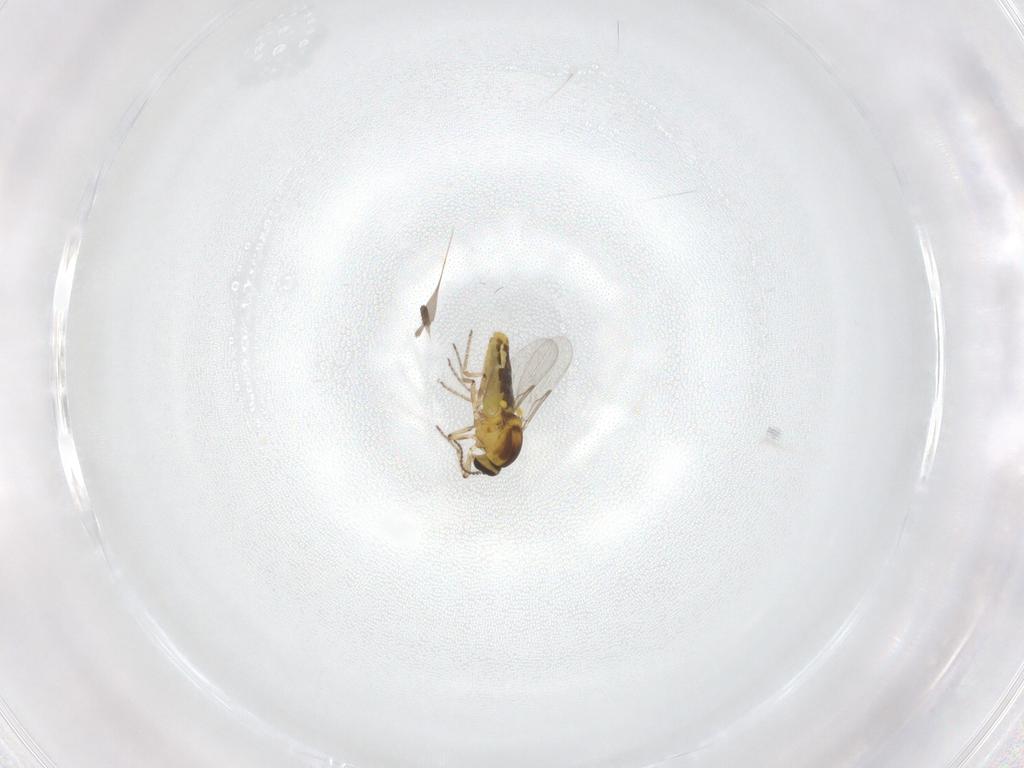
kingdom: Animalia
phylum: Arthropoda
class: Insecta
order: Diptera
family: Ceratopogonidae
